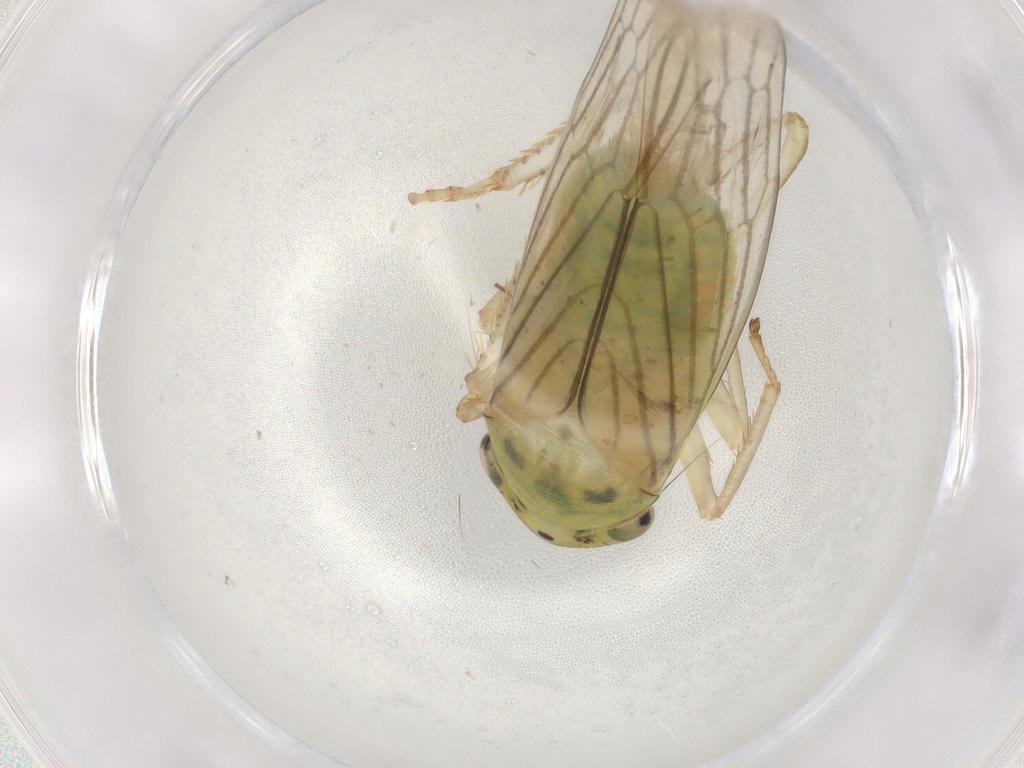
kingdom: Animalia
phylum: Arthropoda
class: Insecta
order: Hemiptera
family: Cicadellidae
